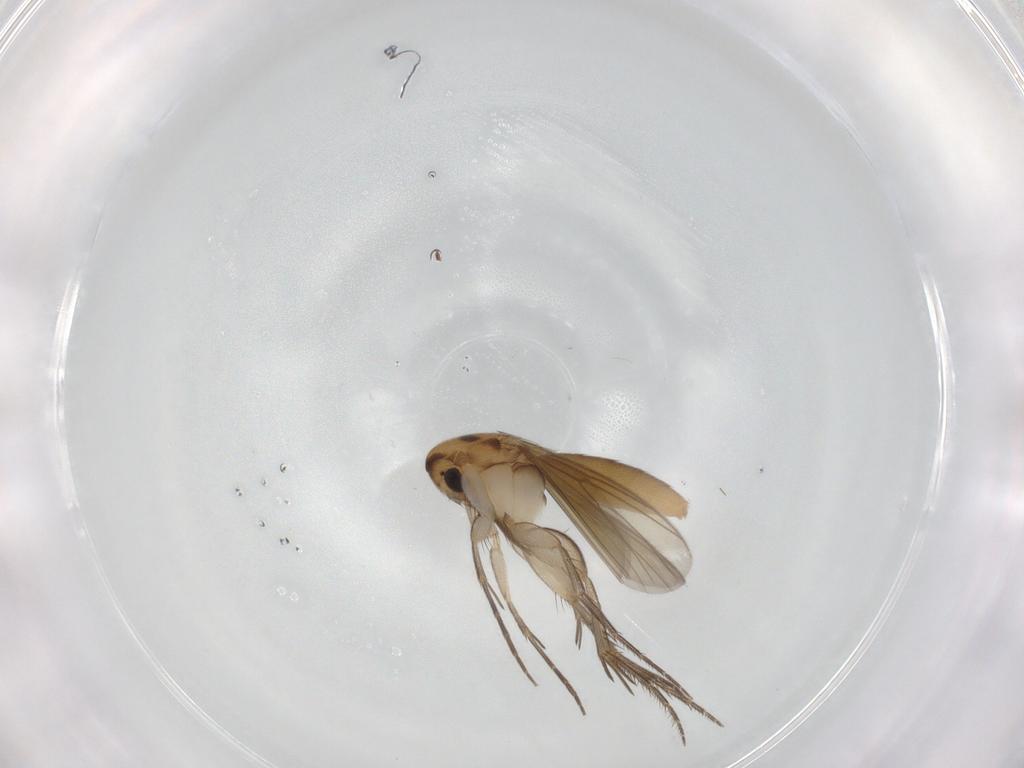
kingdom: Animalia
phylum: Arthropoda
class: Insecta
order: Diptera
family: Mycetophilidae
